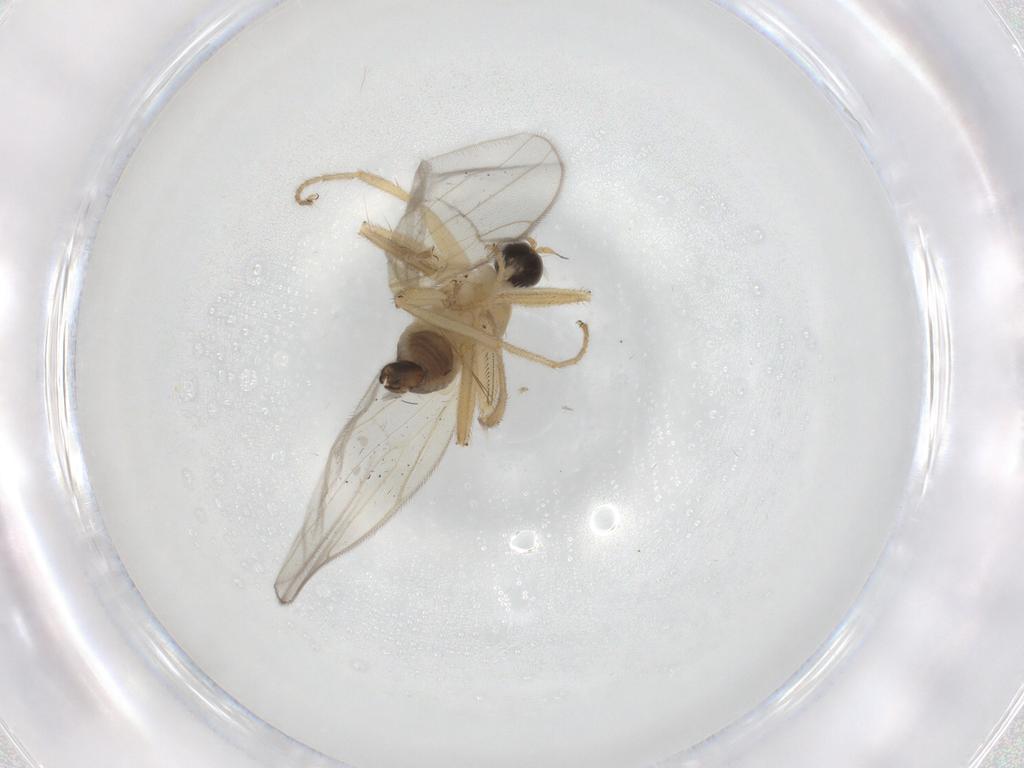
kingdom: Animalia
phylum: Arthropoda
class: Insecta
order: Diptera
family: Hybotidae
